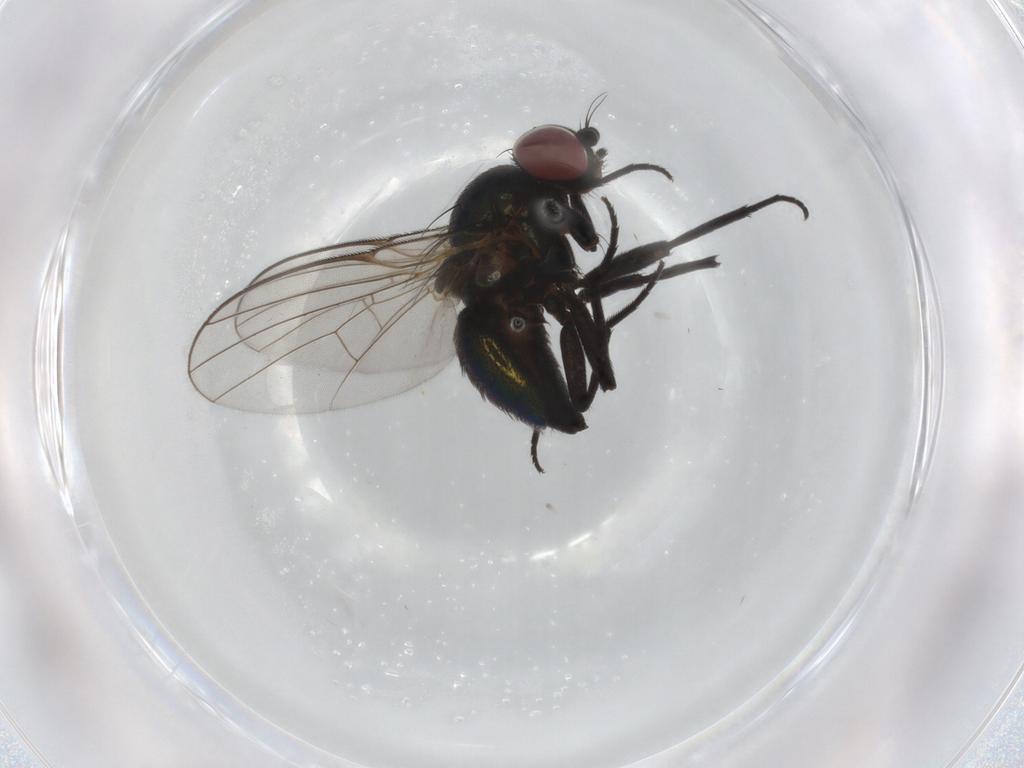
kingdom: Animalia
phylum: Arthropoda
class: Insecta
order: Diptera
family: Agromyzidae
